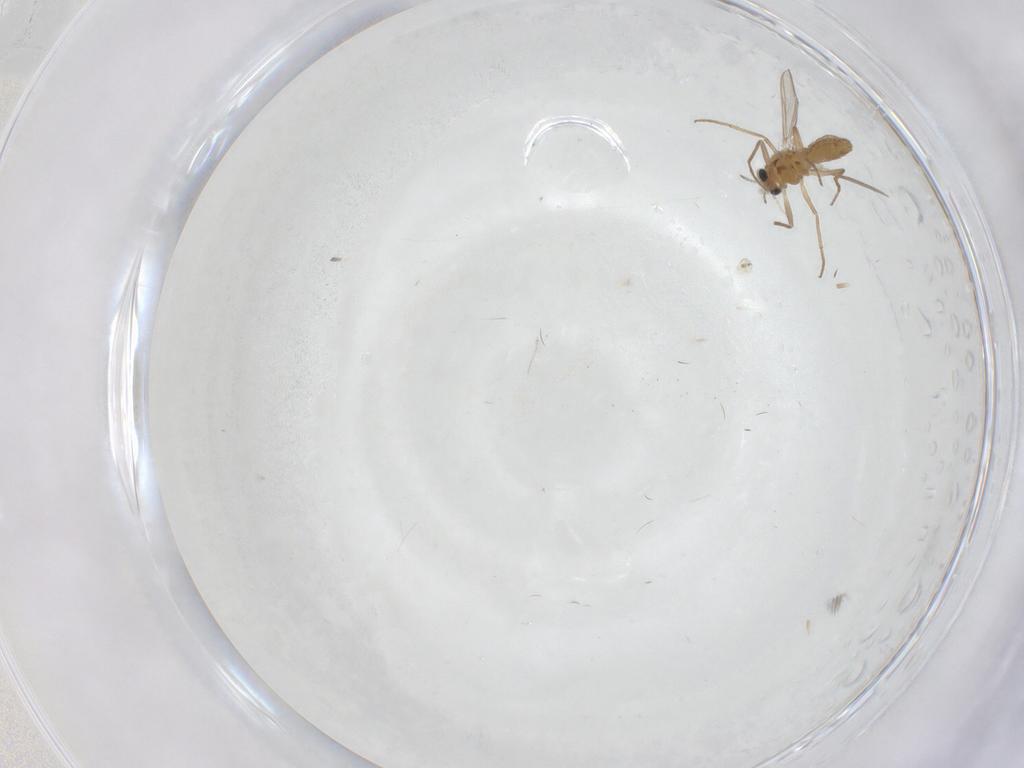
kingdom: Animalia
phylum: Arthropoda
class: Insecta
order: Diptera
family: Chironomidae
